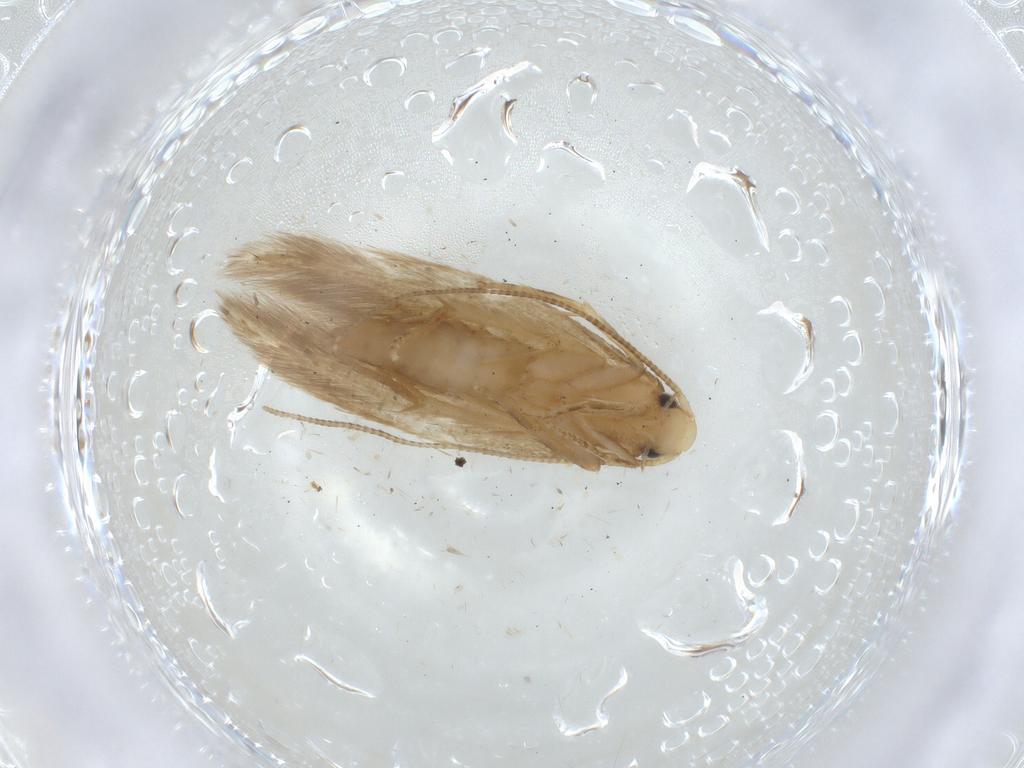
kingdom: Animalia
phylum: Arthropoda
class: Insecta
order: Lepidoptera
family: Tineidae
